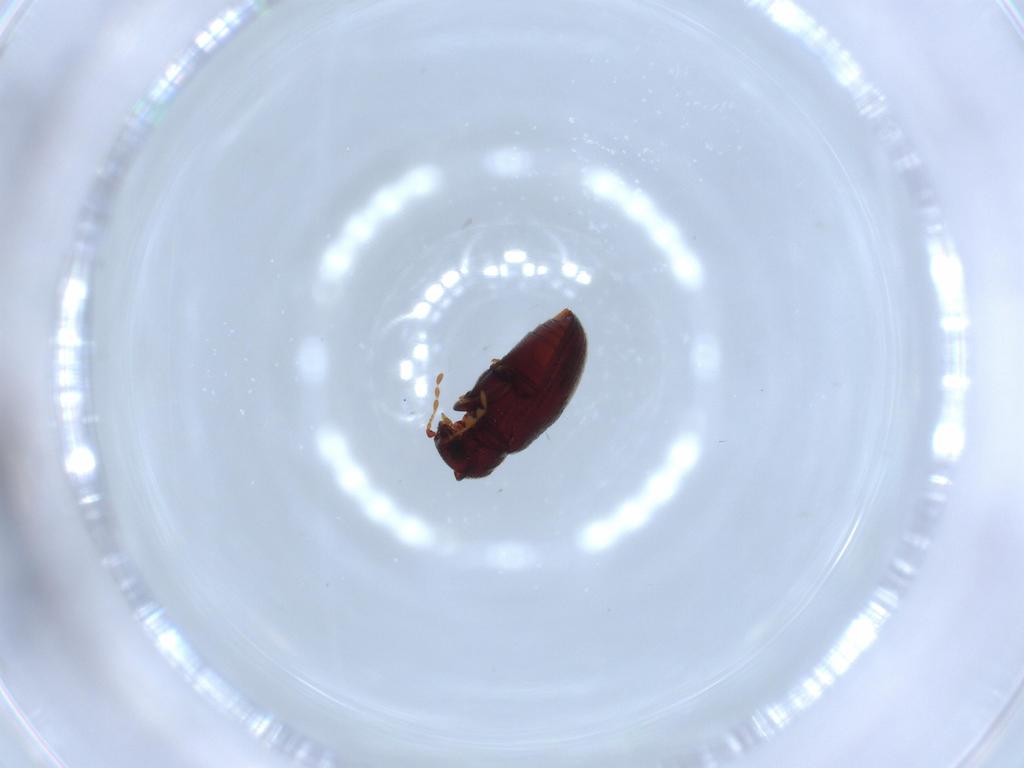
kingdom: Animalia
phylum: Arthropoda
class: Insecta
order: Coleoptera
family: Anobiidae
